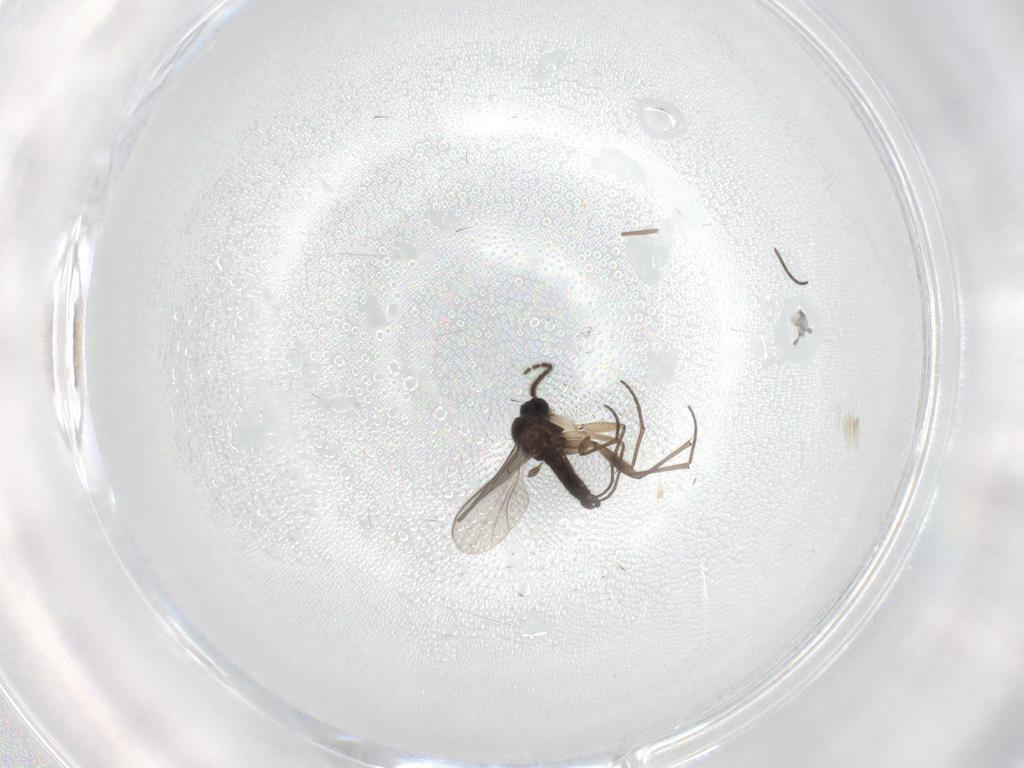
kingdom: Animalia
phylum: Arthropoda
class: Insecta
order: Diptera
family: Sciaridae
